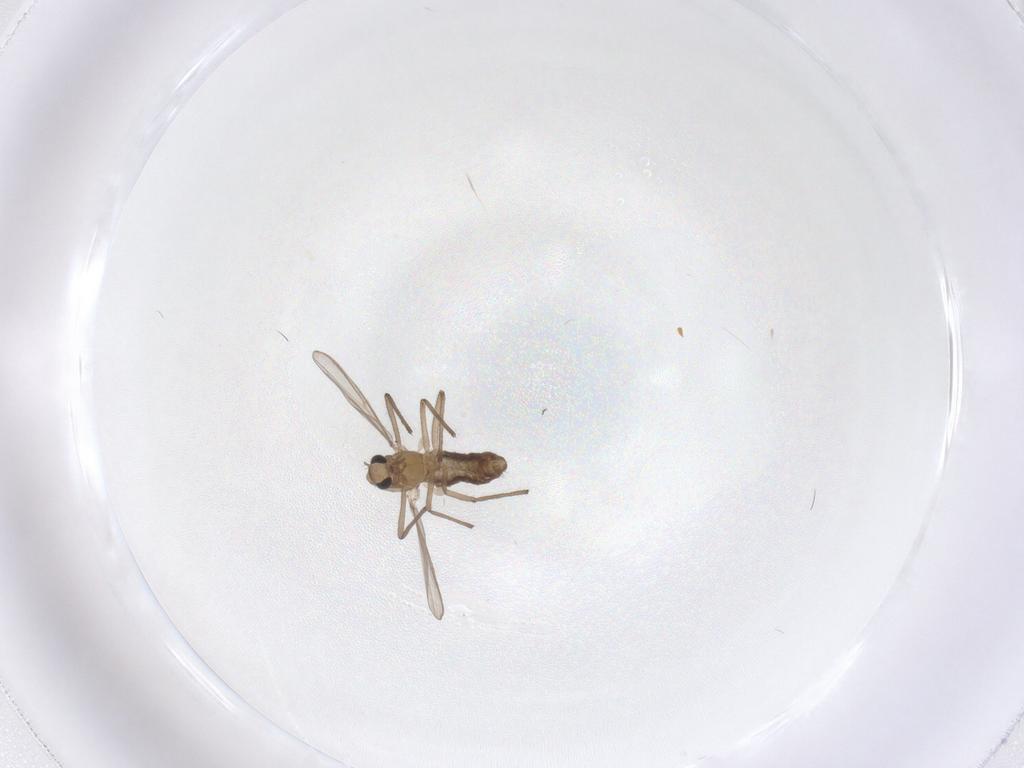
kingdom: Animalia
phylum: Arthropoda
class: Insecta
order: Diptera
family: Chironomidae
